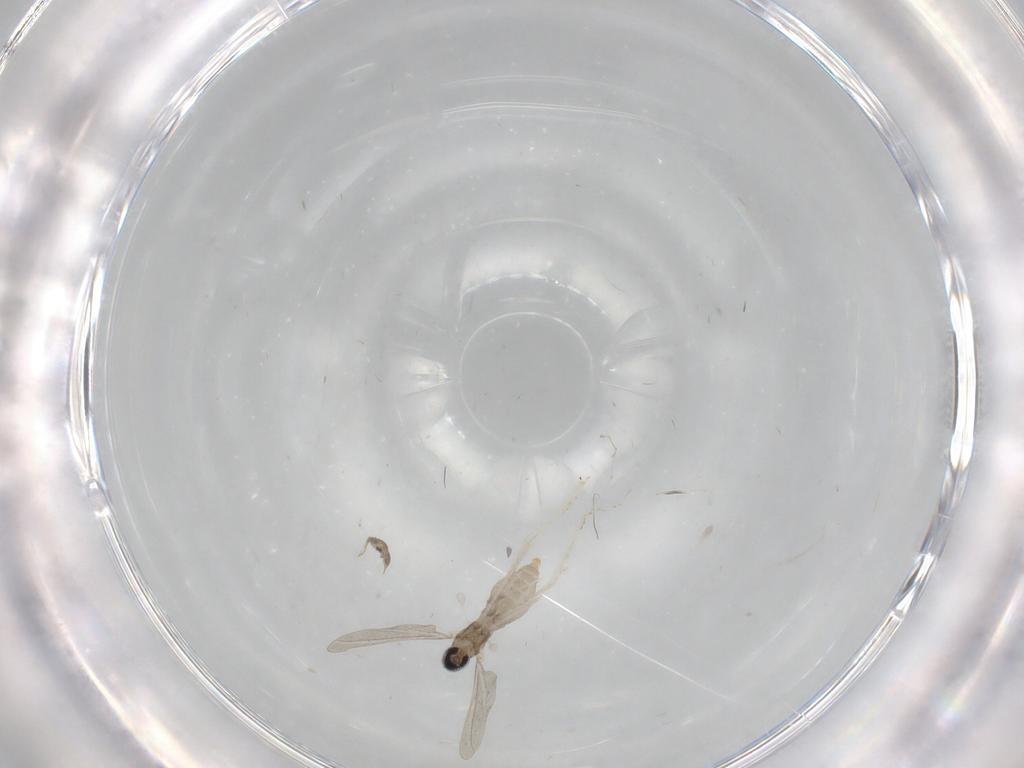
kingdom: Animalia
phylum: Arthropoda
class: Insecta
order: Diptera
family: Cecidomyiidae
